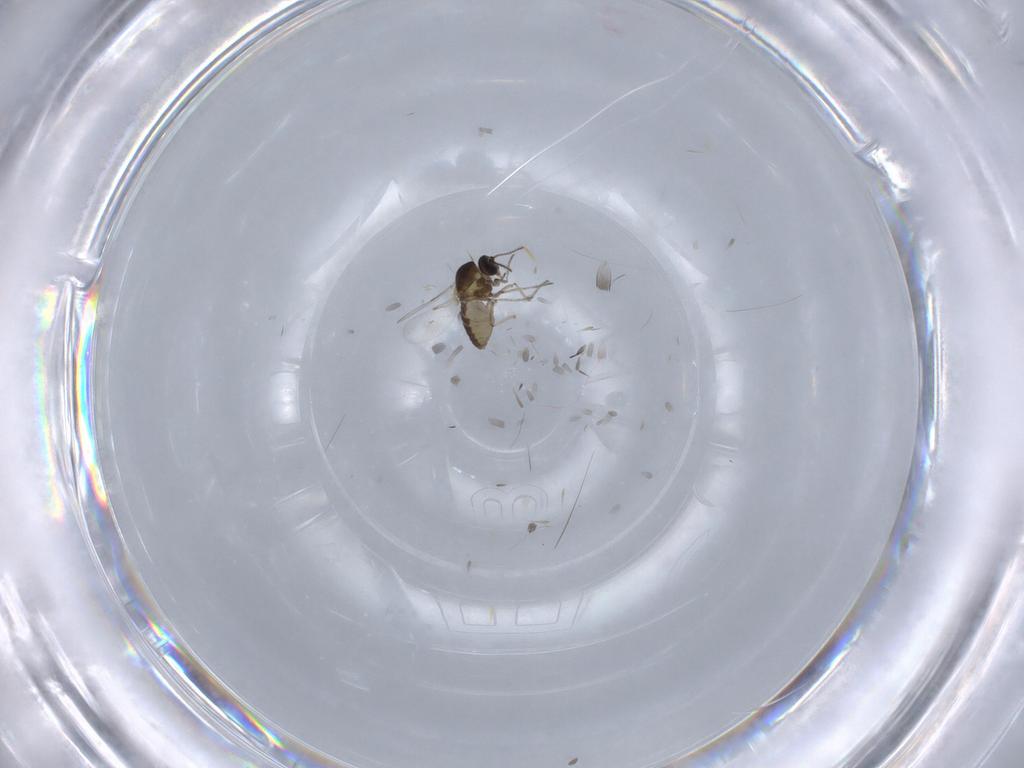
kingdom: Animalia
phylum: Arthropoda
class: Insecta
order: Diptera
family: Ceratopogonidae
